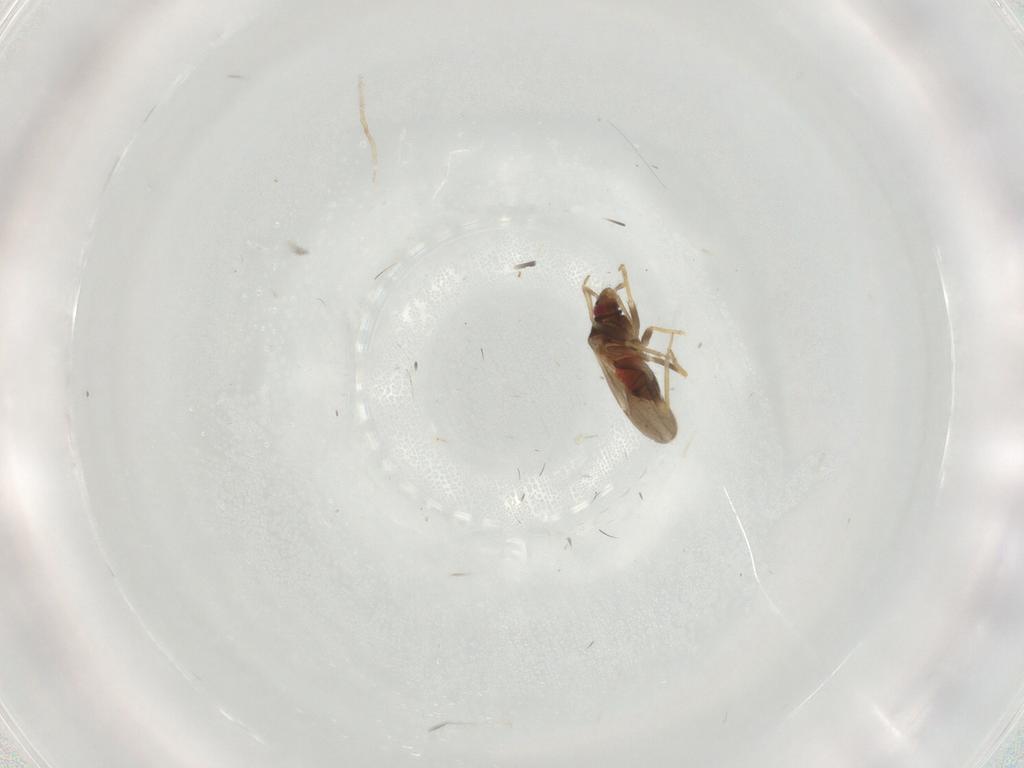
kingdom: Animalia
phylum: Arthropoda
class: Insecta
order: Hemiptera
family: Ceratocombidae
